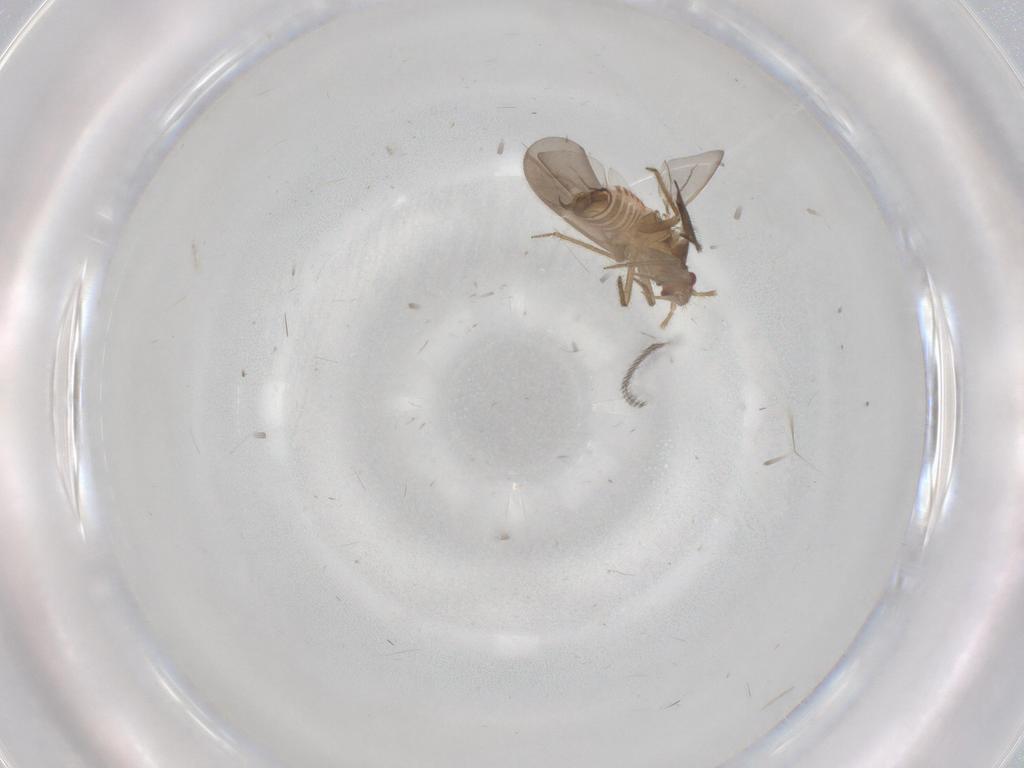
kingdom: Animalia
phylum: Arthropoda
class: Insecta
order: Hemiptera
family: Ceratocombidae
